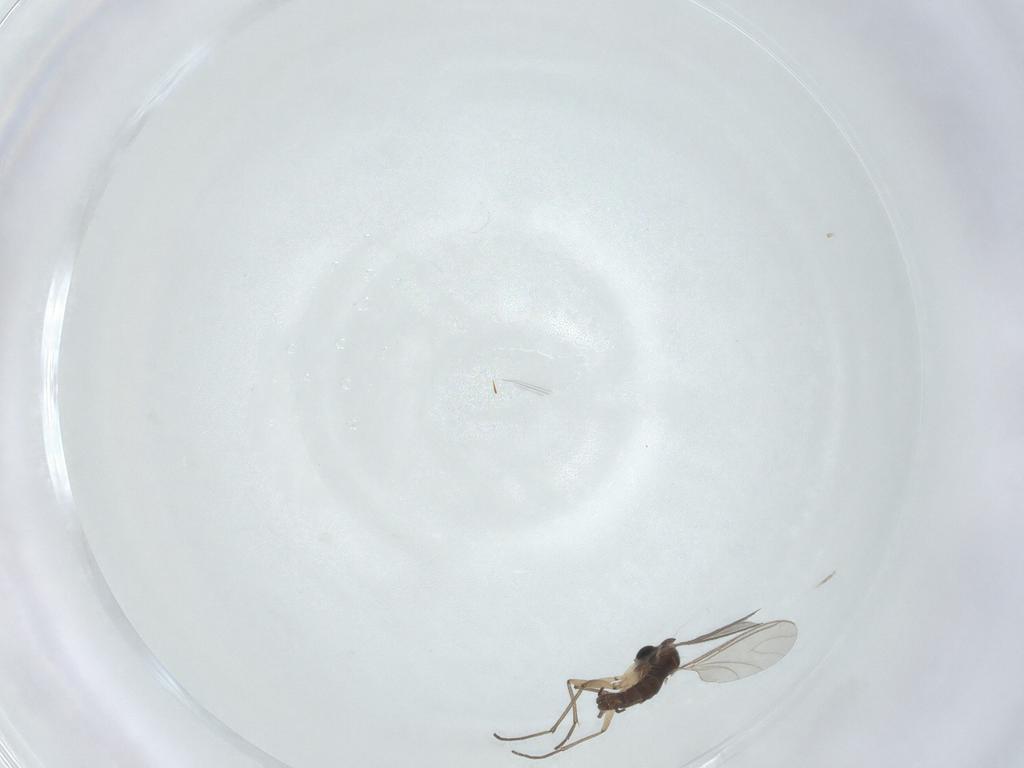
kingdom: Animalia
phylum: Arthropoda
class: Insecta
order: Diptera
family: Sciaridae
